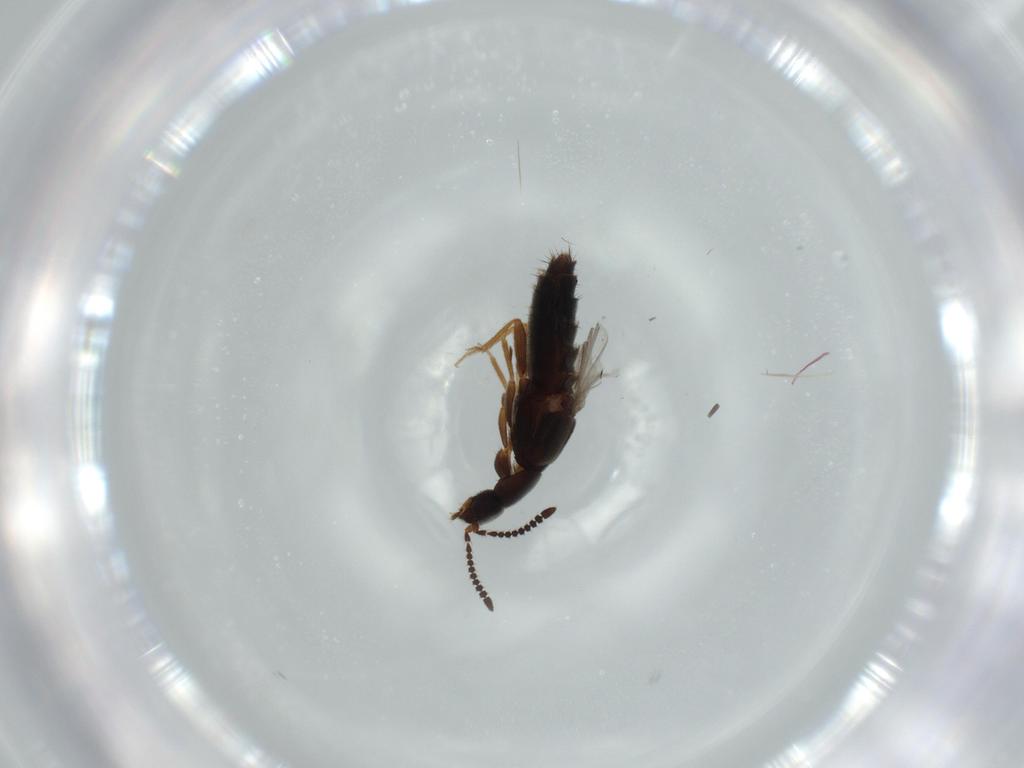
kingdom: Animalia
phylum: Arthropoda
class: Insecta
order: Coleoptera
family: Staphylinidae
